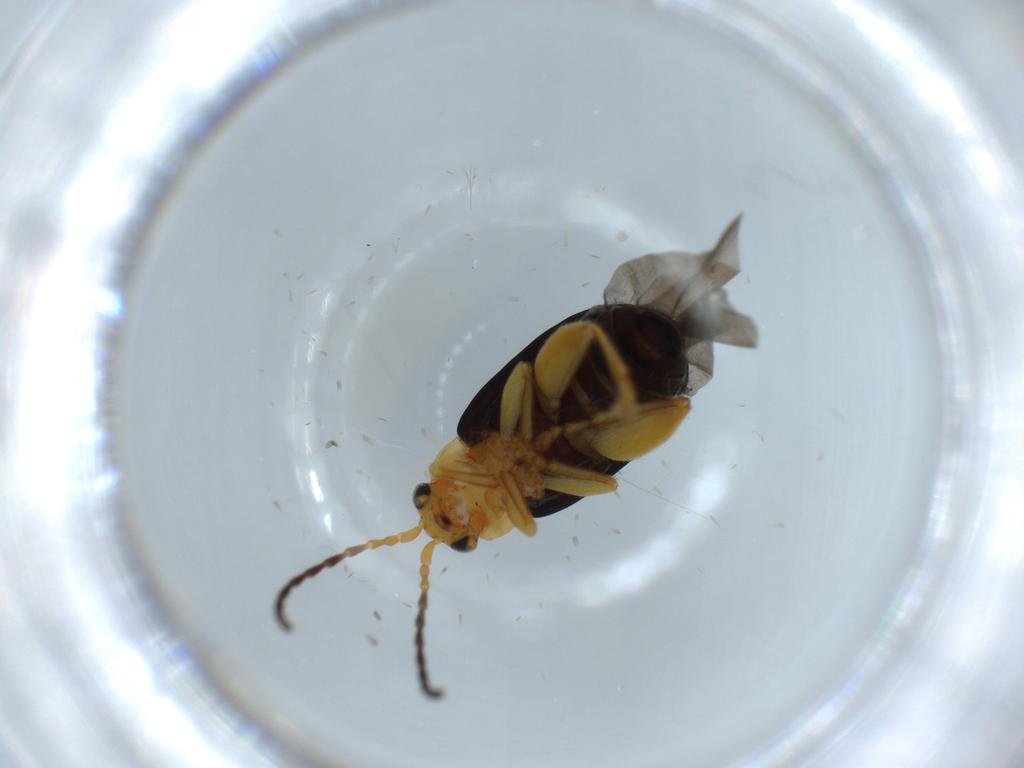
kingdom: Animalia
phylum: Arthropoda
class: Insecta
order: Coleoptera
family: Chrysomelidae
